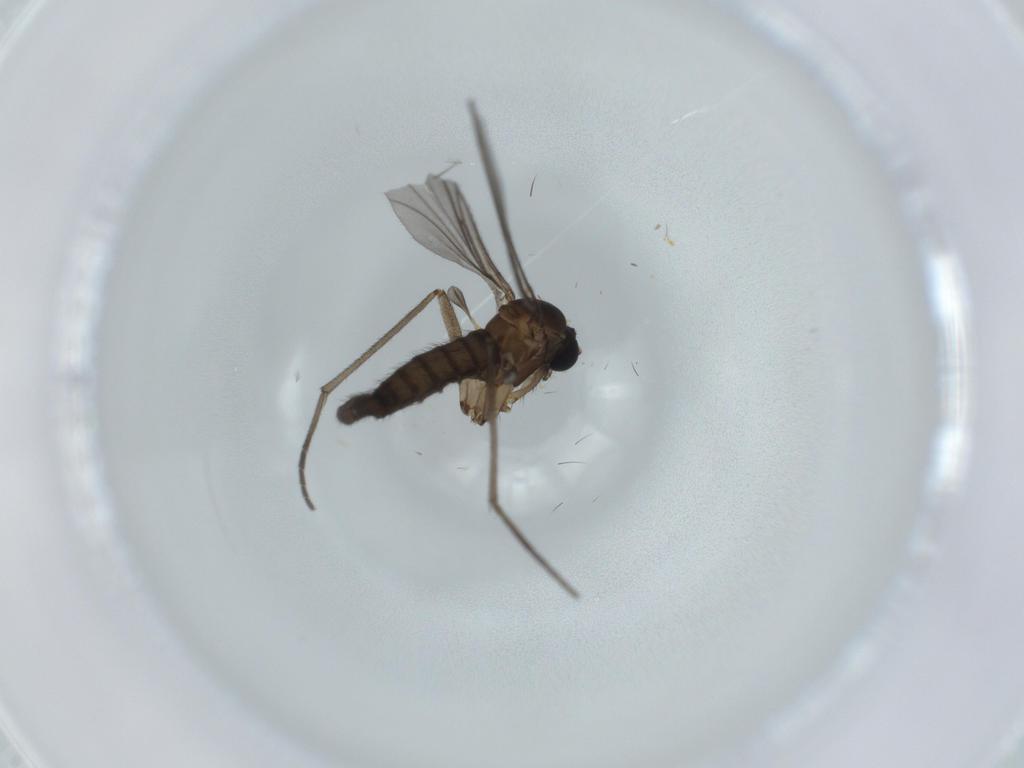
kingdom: Animalia
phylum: Arthropoda
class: Insecta
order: Diptera
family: Sciaridae
